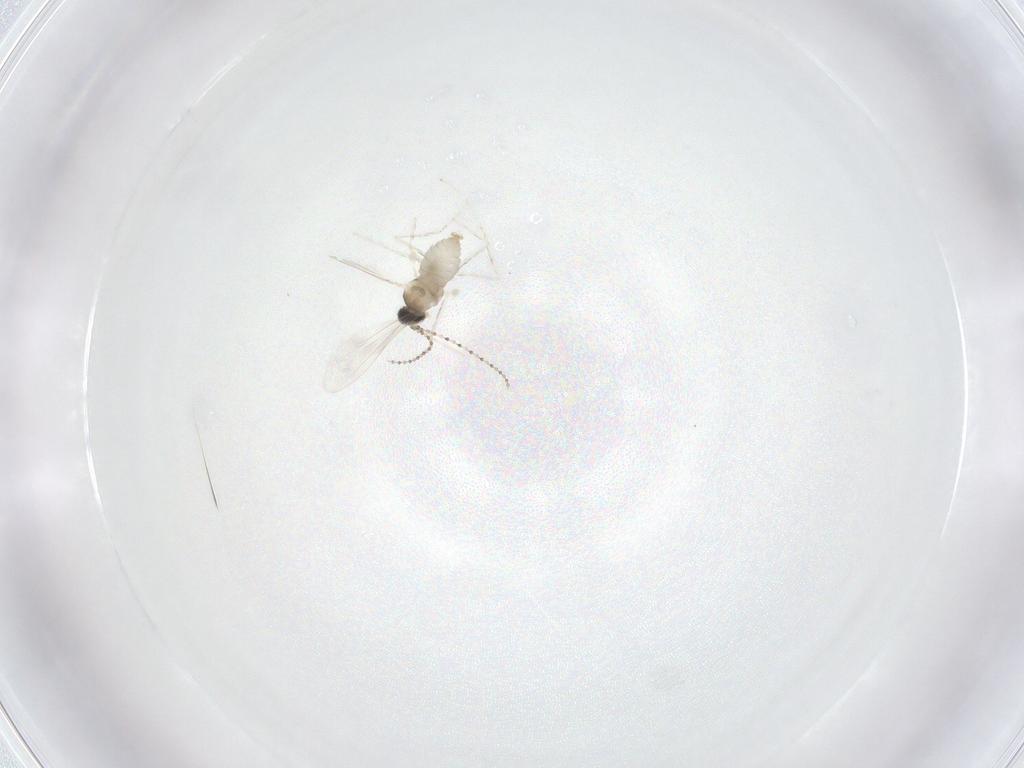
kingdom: Animalia
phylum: Arthropoda
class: Insecta
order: Diptera
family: Cecidomyiidae
